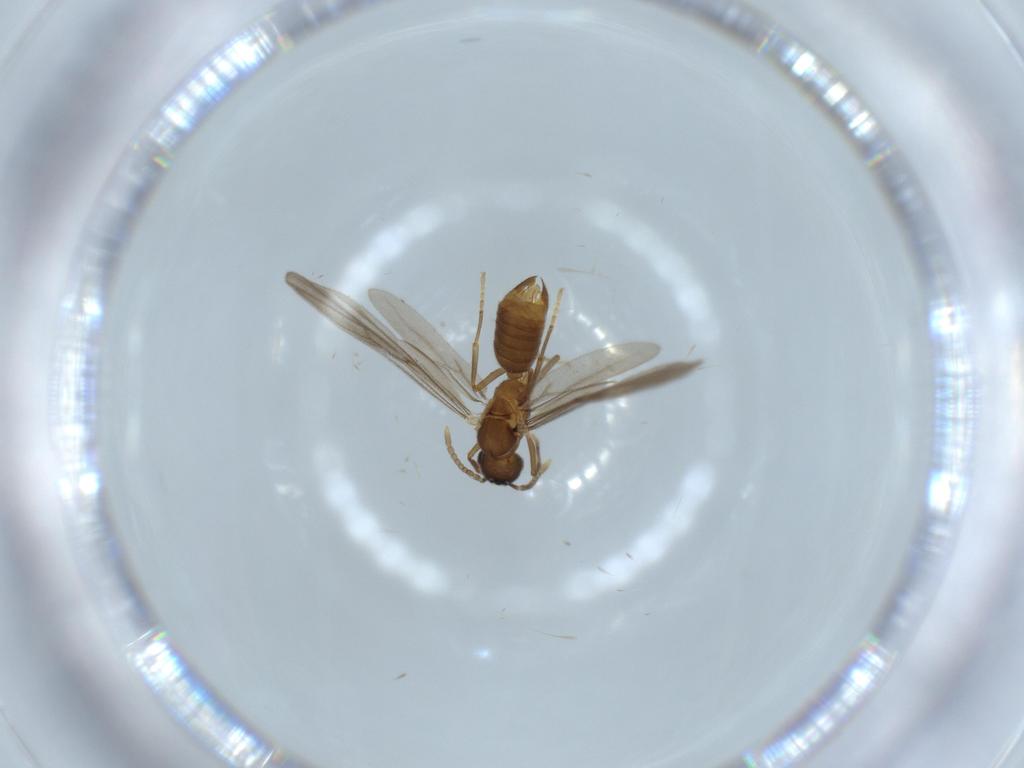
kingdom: Animalia
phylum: Arthropoda
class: Insecta
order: Hymenoptera
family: Formicidae
